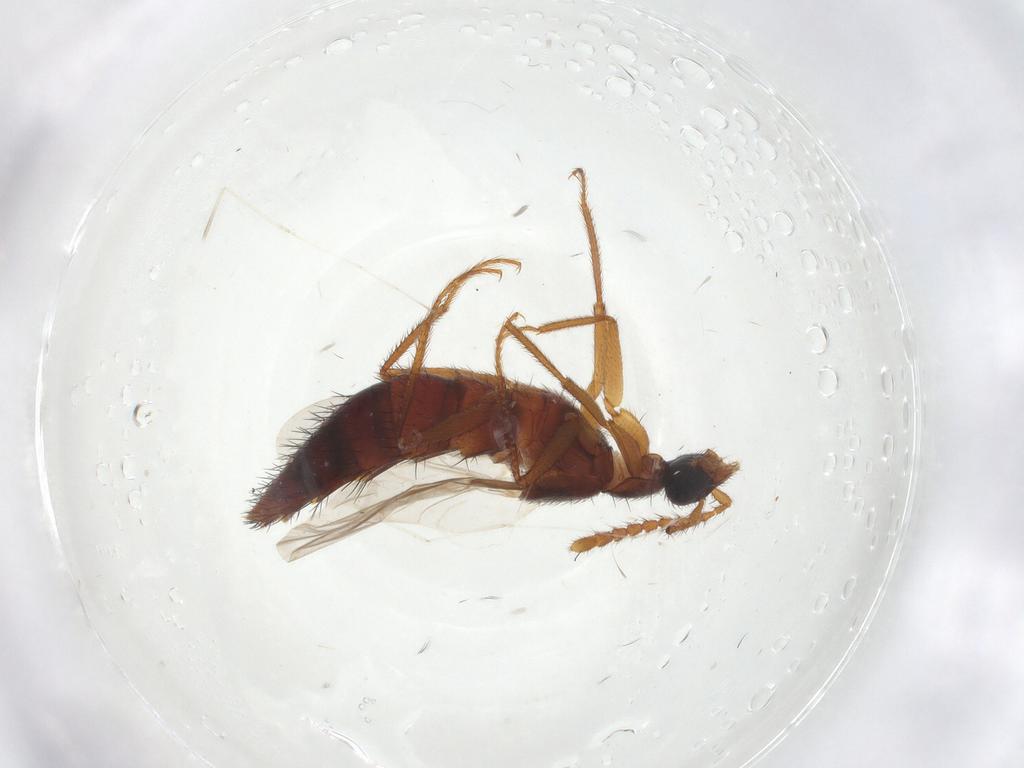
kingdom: Animalia
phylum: Arthropoda
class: Insecta
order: Coleoptera
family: Staphylinidae
